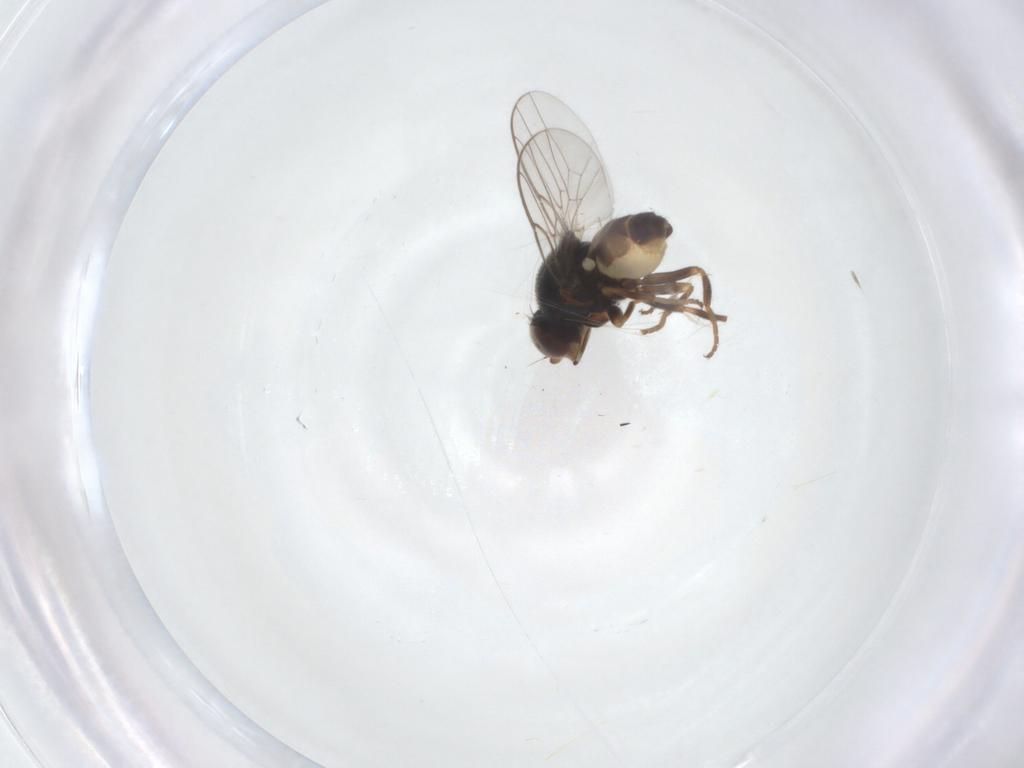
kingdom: Animalia
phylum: Arthropoda
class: Insecta
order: Diptera
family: Chloropidae
